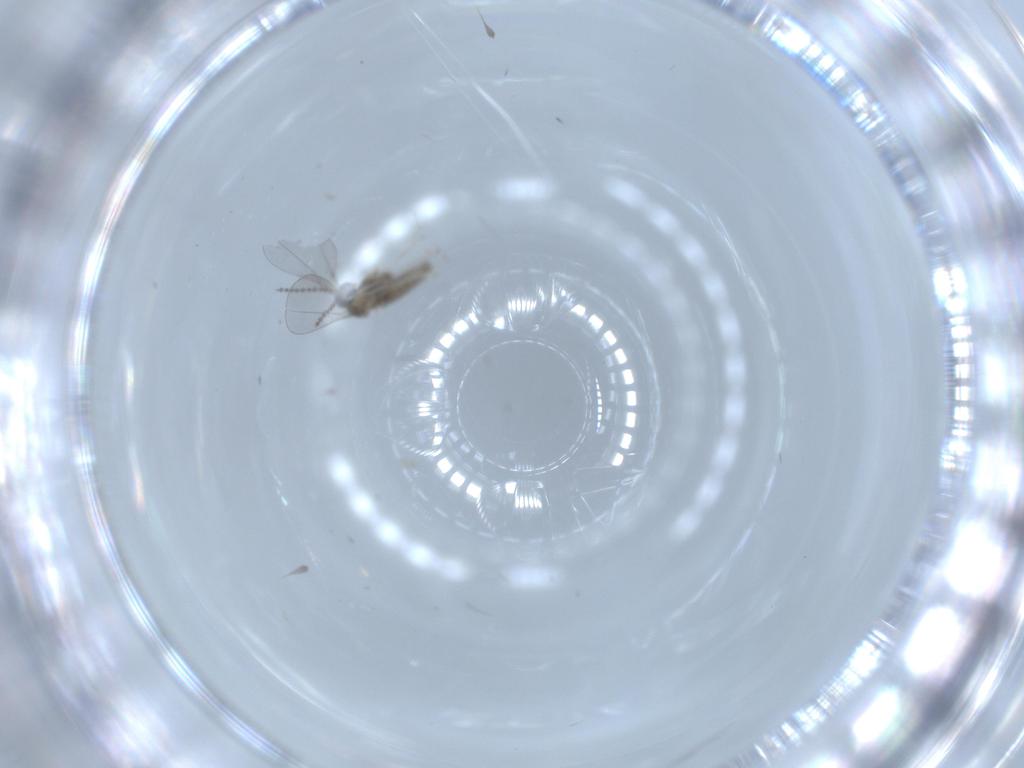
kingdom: Animalia
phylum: Arthropoda
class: Insecta
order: Diptera
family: Cecidomyiidae
